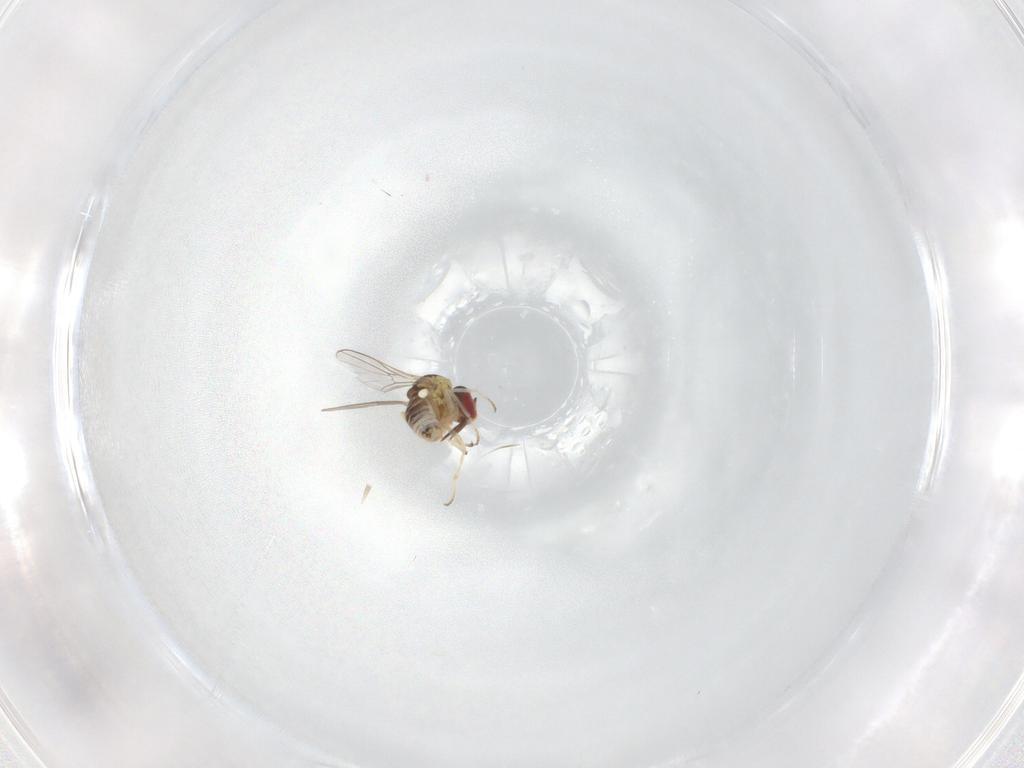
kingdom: Animalia
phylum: Arthropoda
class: Insecta
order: Diptera
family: Bombyliidae
